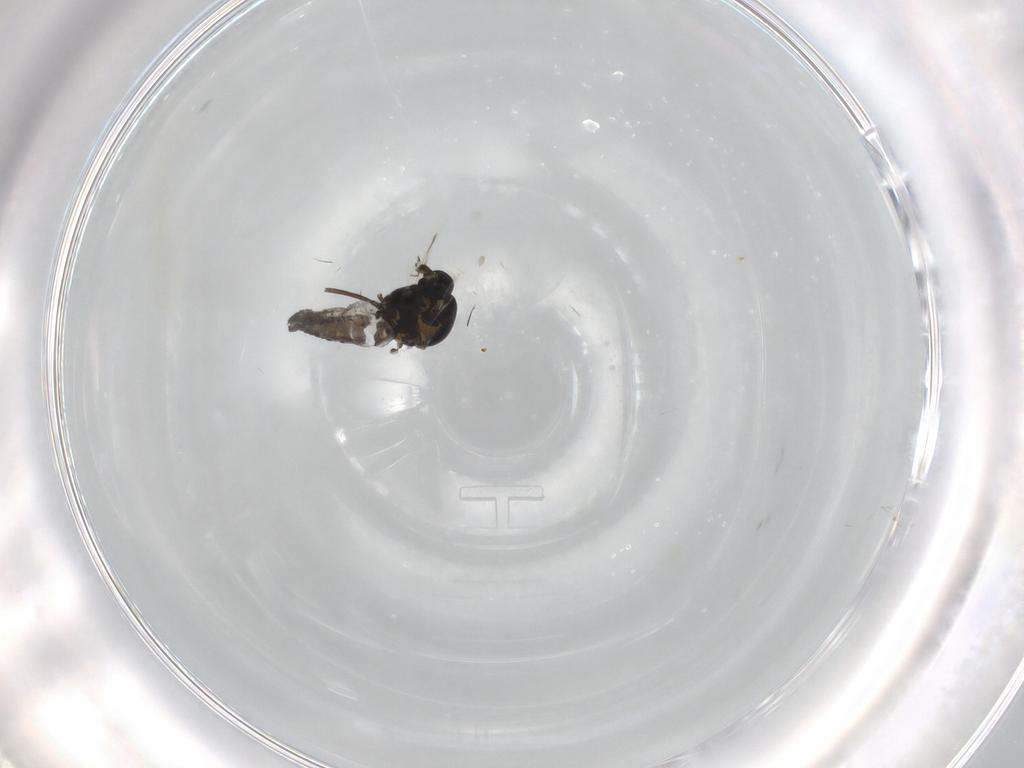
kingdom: Animalia
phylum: Arthropoda
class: Insecta
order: Diptera
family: Ceratopogonidae
